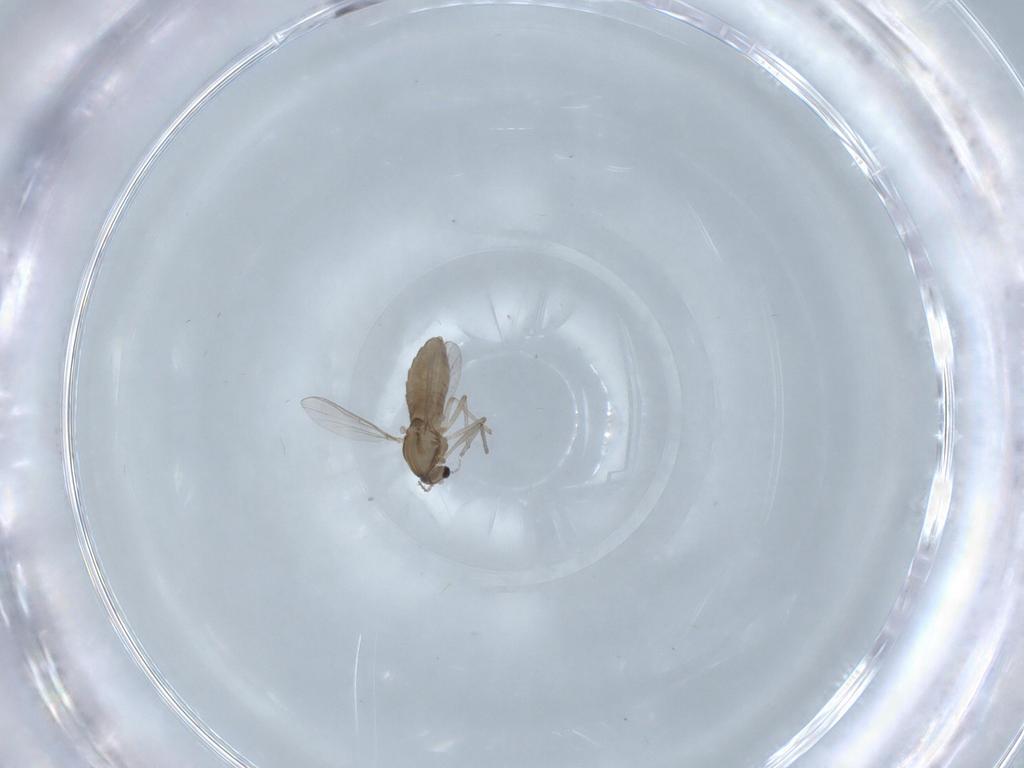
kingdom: Animalia
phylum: Arthropoda
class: Insecta
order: Diptera
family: Chironomidae
